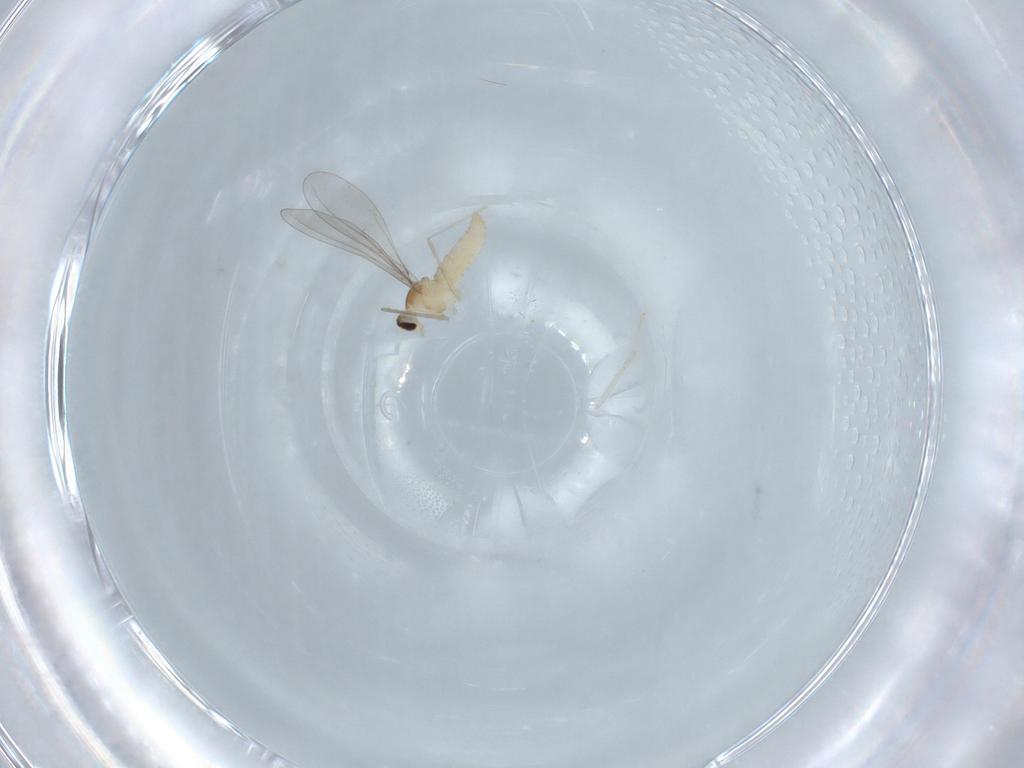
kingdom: Animalia
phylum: Arthropoda
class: Insecta
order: Diptera
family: Cecidomyiidae
